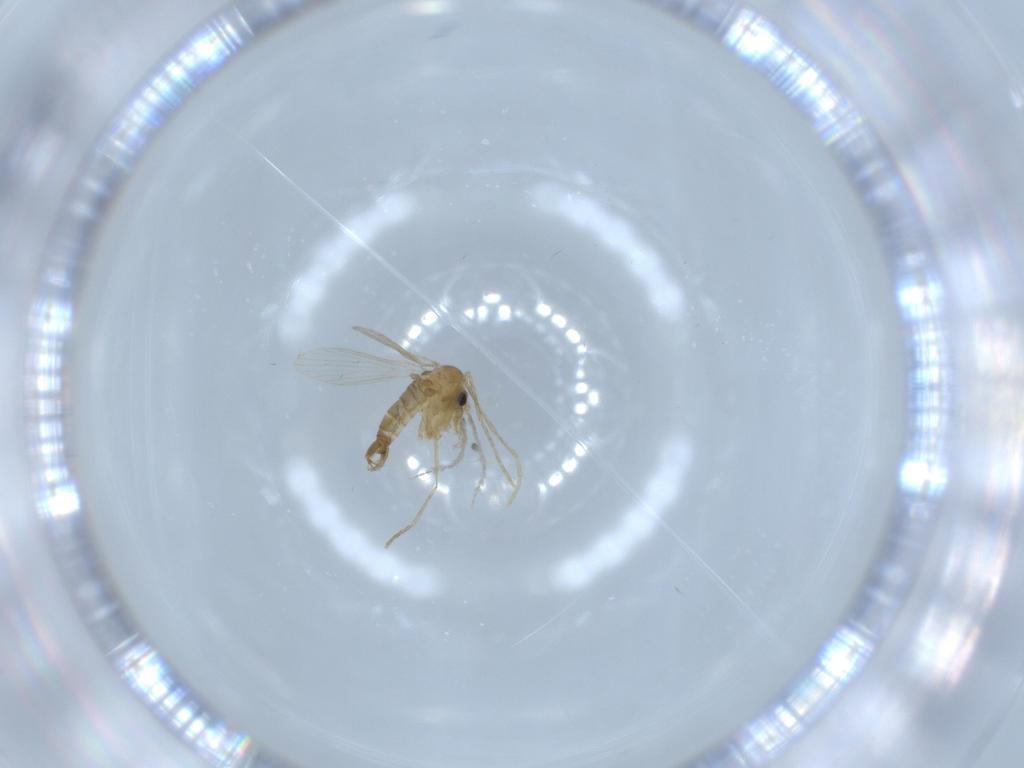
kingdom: Animalia
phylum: Arthropoda
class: Insecta
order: Diptera
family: Psychodidae
